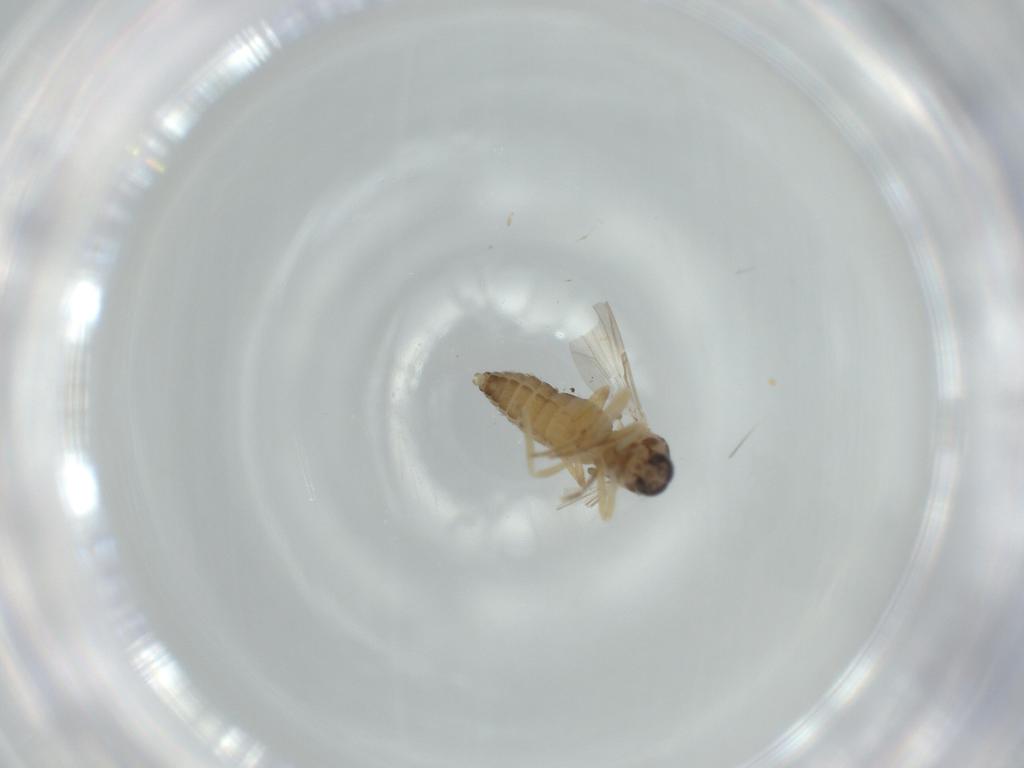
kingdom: Animalia
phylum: Arthropoda
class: Insecta
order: Diptera
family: Ceratopogonidae
